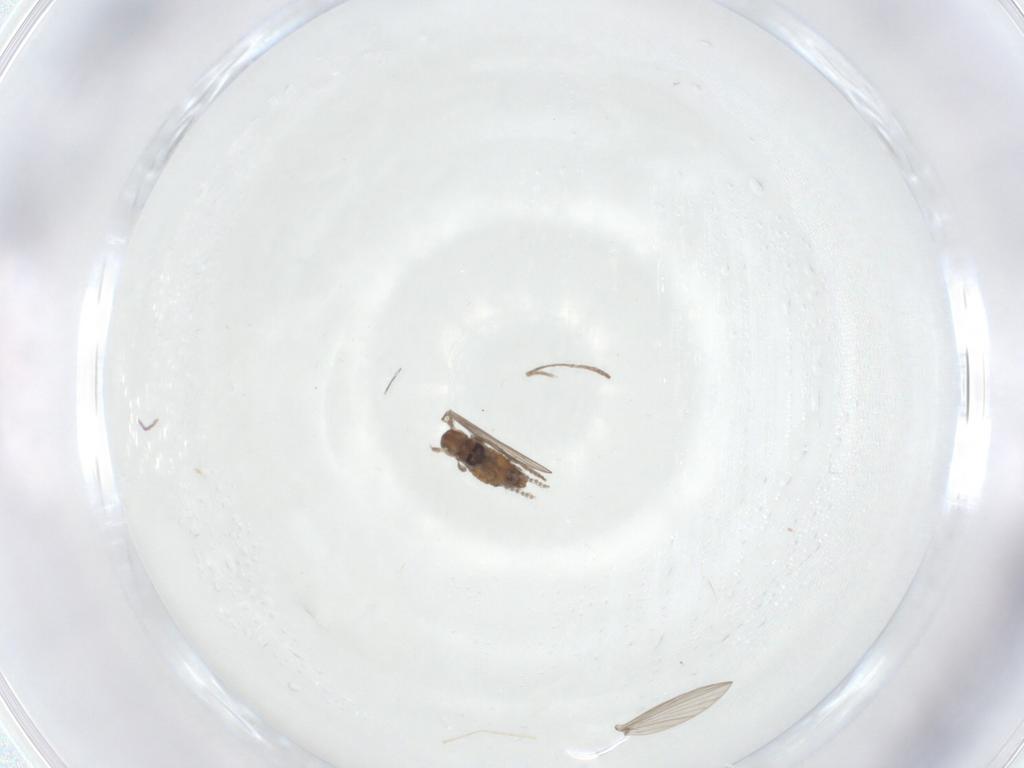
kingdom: Animalia
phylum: Arthropoda
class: Insecta
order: Diptera
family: Psychodidae
